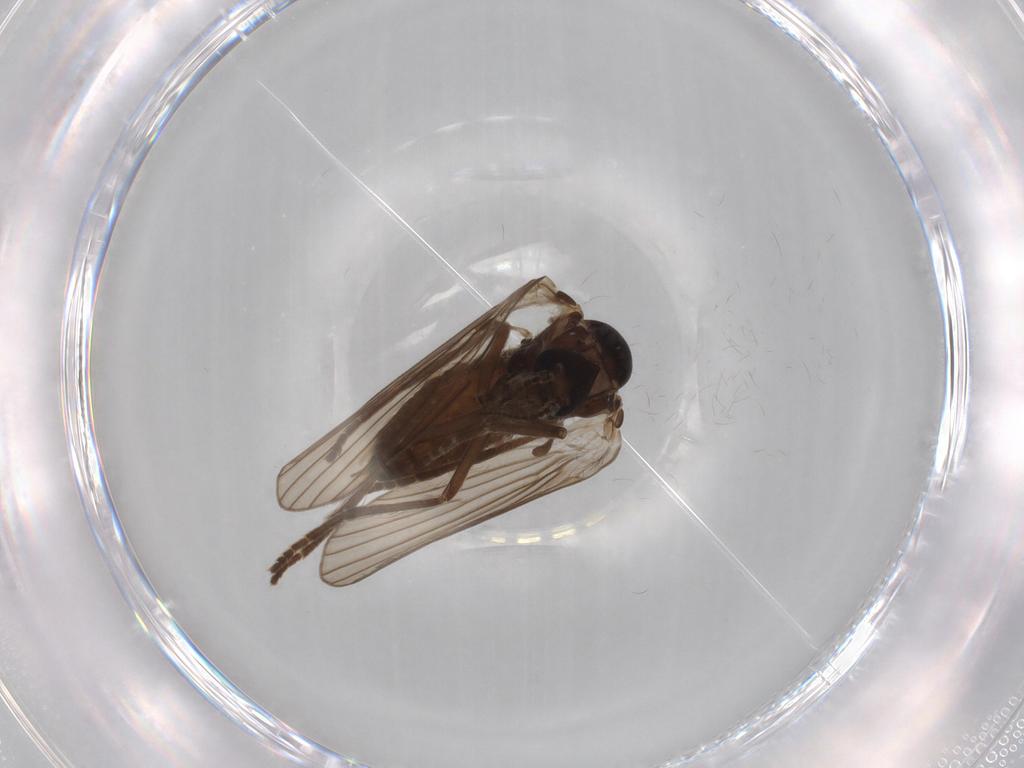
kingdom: Animalia
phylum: Arthropoda
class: Insecta
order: Diptera
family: Psychodidae
